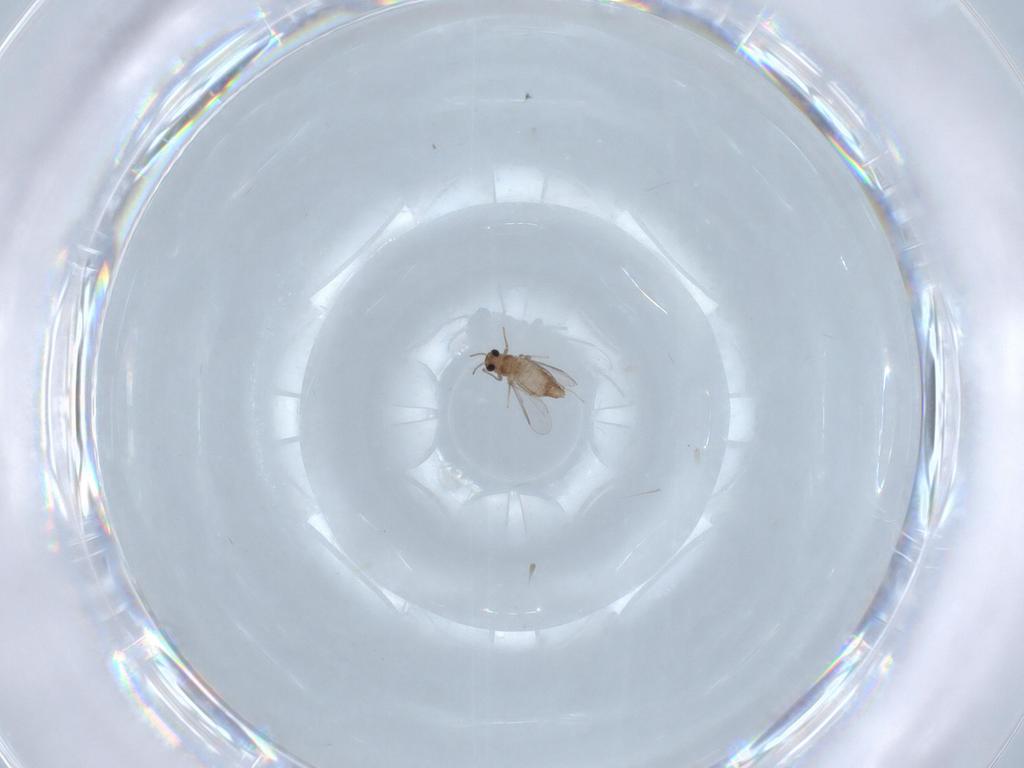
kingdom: Animalia
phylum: Arthropoda
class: Insecta
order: Diptera
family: Chironomidae
